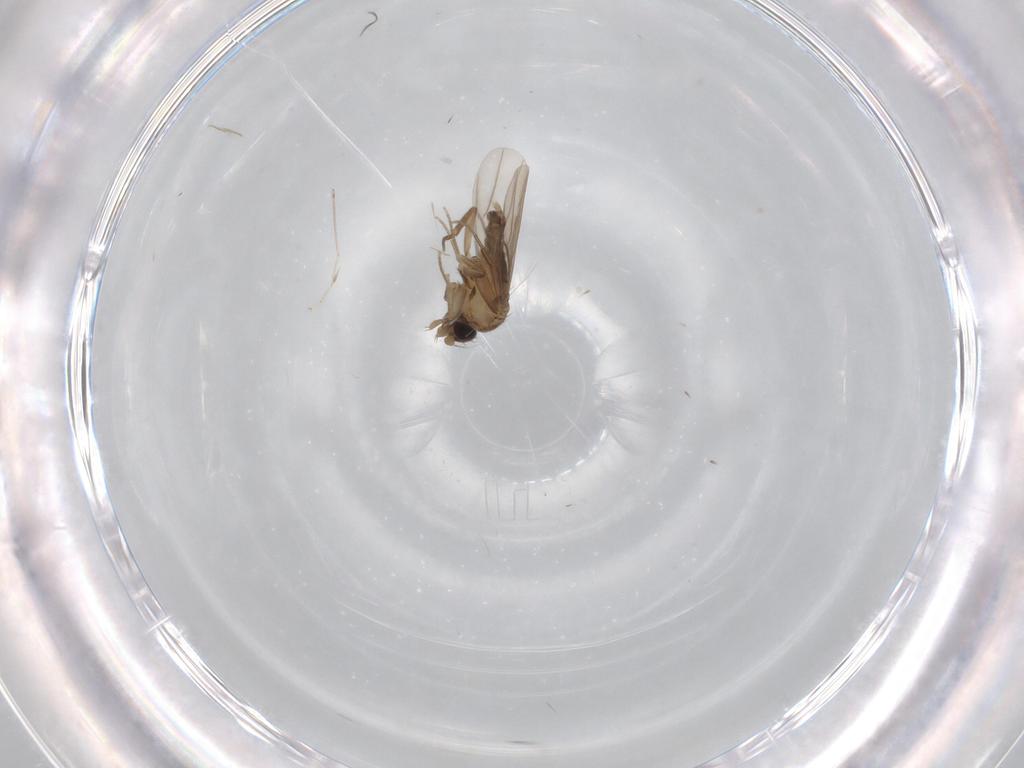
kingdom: Animalia
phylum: Arthropoda
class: Insecta
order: Diptera
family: Phoridae
